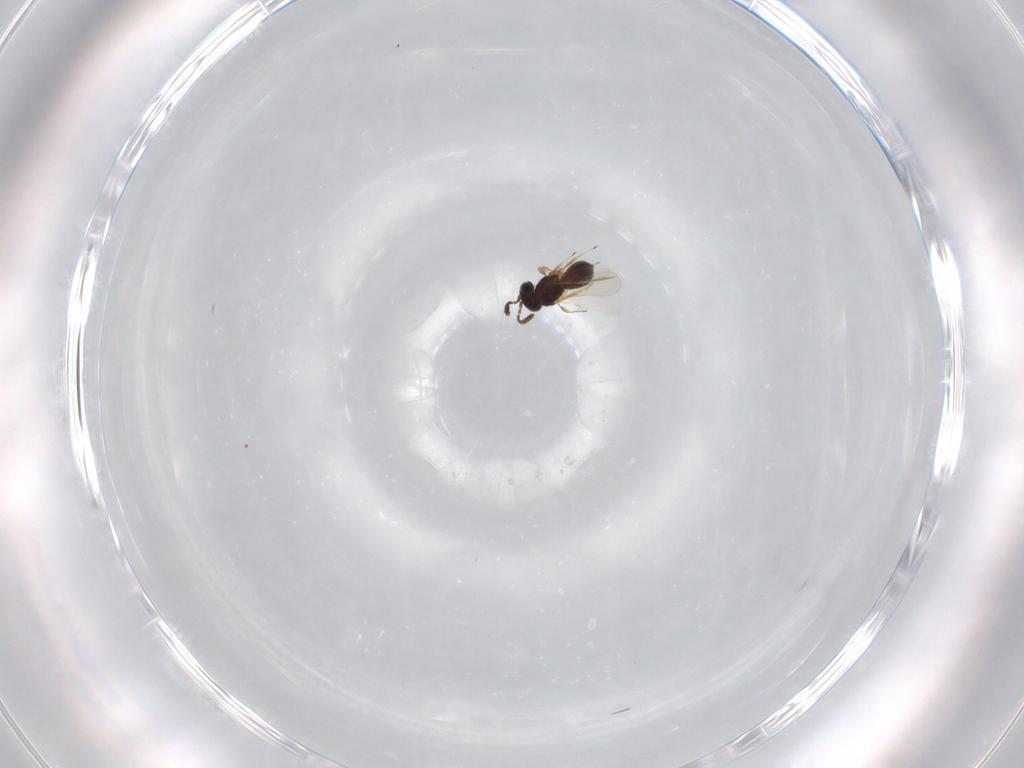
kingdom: Animalia
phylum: Arthropoda
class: Insecta
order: Hymenoptera
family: Scelionidae
